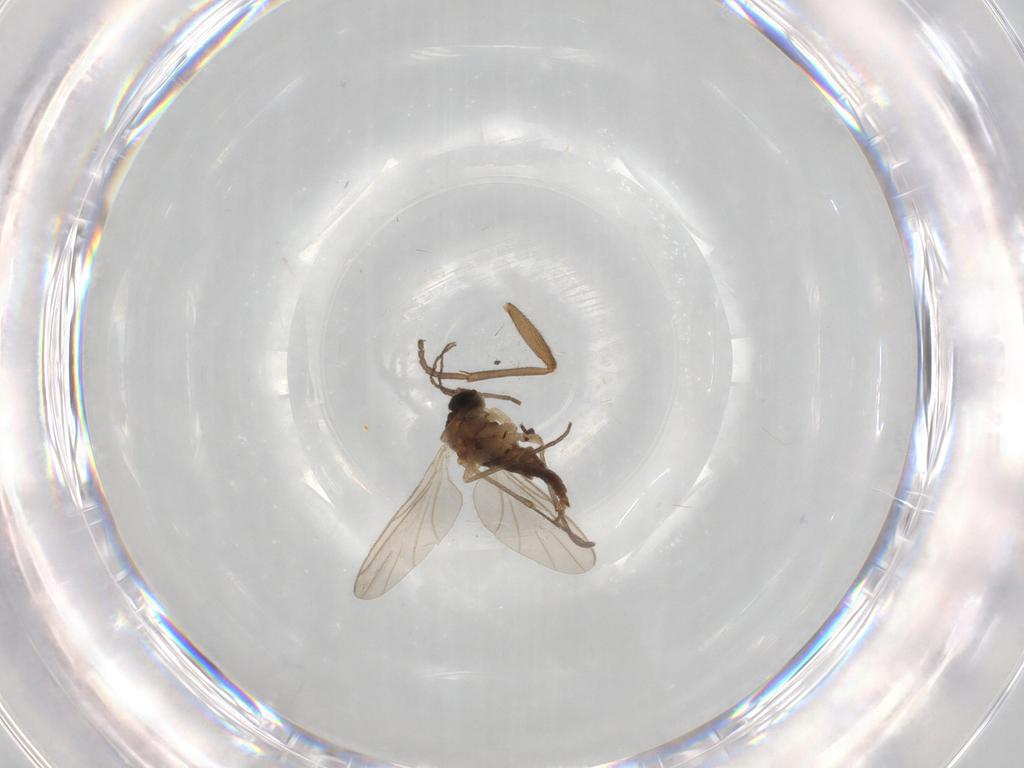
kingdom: Animalia
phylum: Arthropoda
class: Insecta
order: Diptera
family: Sciaridae
